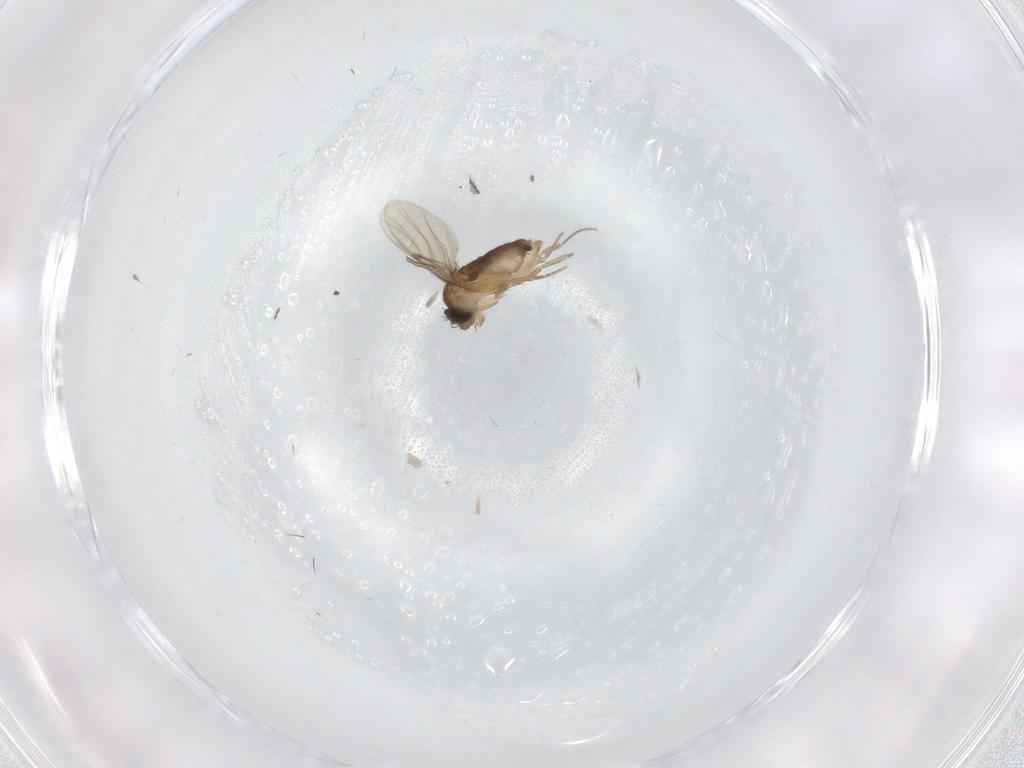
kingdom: Animalia
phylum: Arthropoda
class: Insecta
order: Diptera
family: Phoridae
